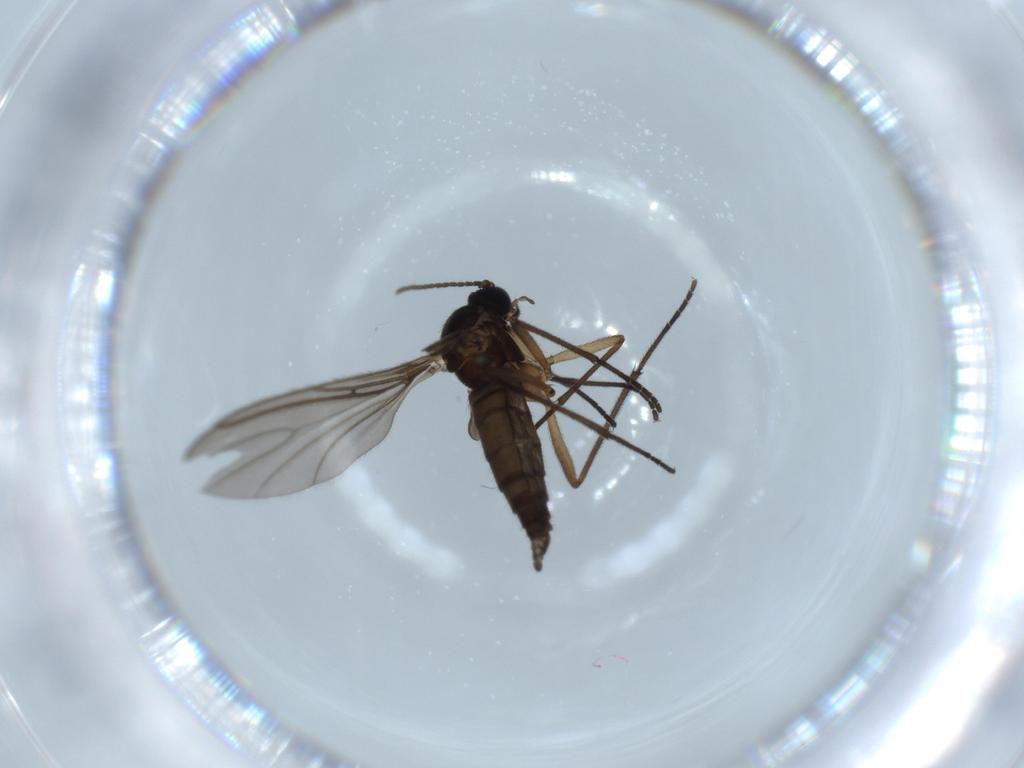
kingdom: Animalia
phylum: Arthropoda
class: Insecta
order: Diptera
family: Sciaridae
